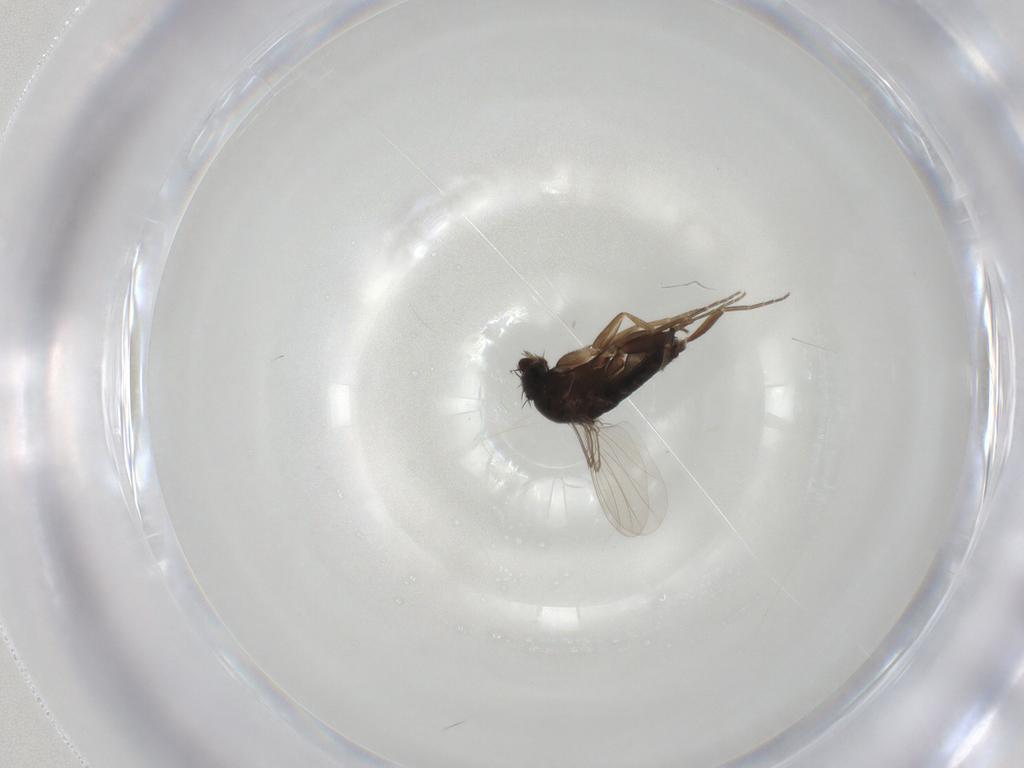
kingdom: Animalia
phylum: Arthropoda
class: Insecta
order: Diptera
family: Phoridae
